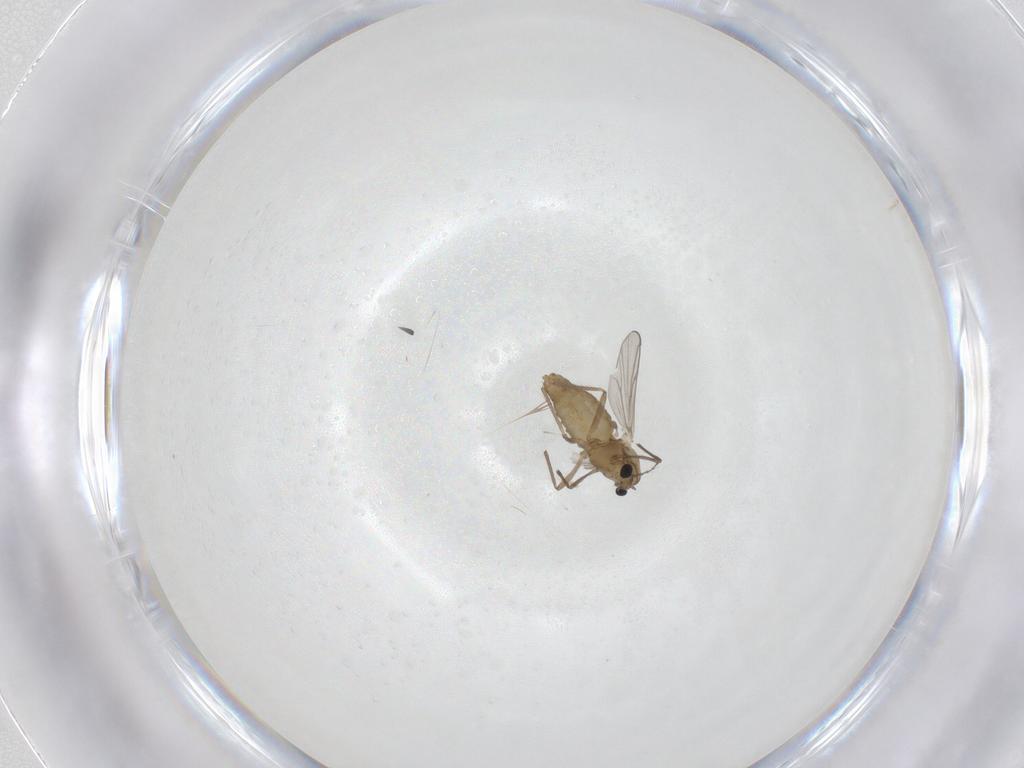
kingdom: Animalia
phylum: Arthropoda
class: Insecta
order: Diptera
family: Chironomidae
